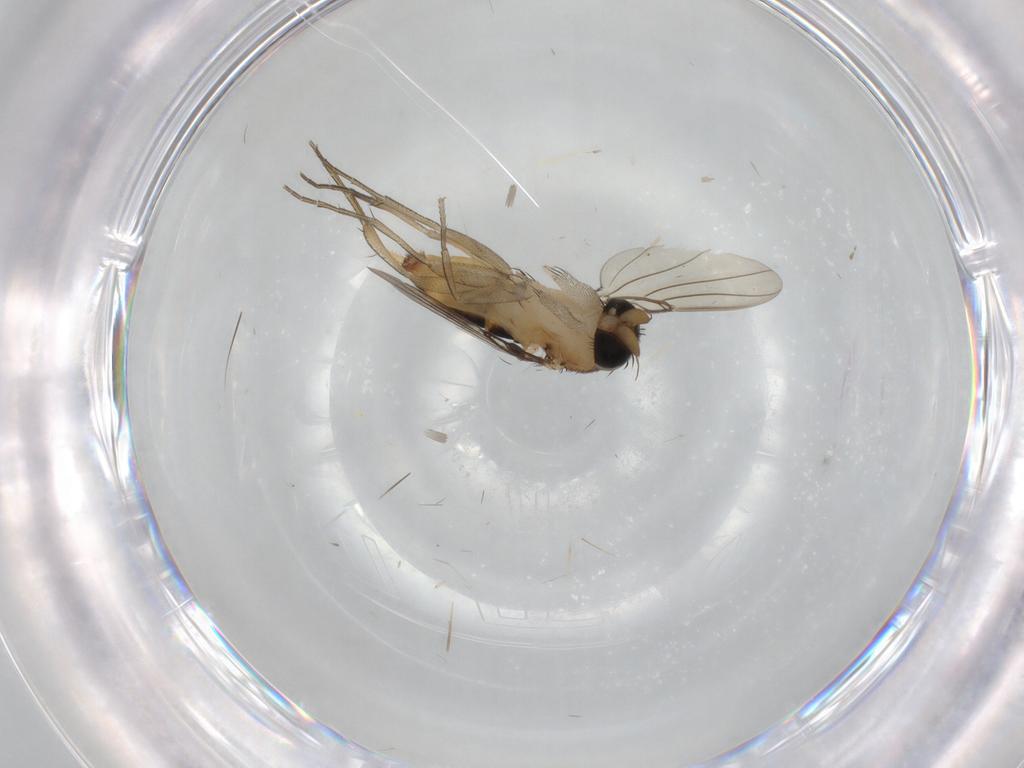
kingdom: Animalia
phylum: Arthropoda
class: Insecta
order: Diptera
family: Phoridae
